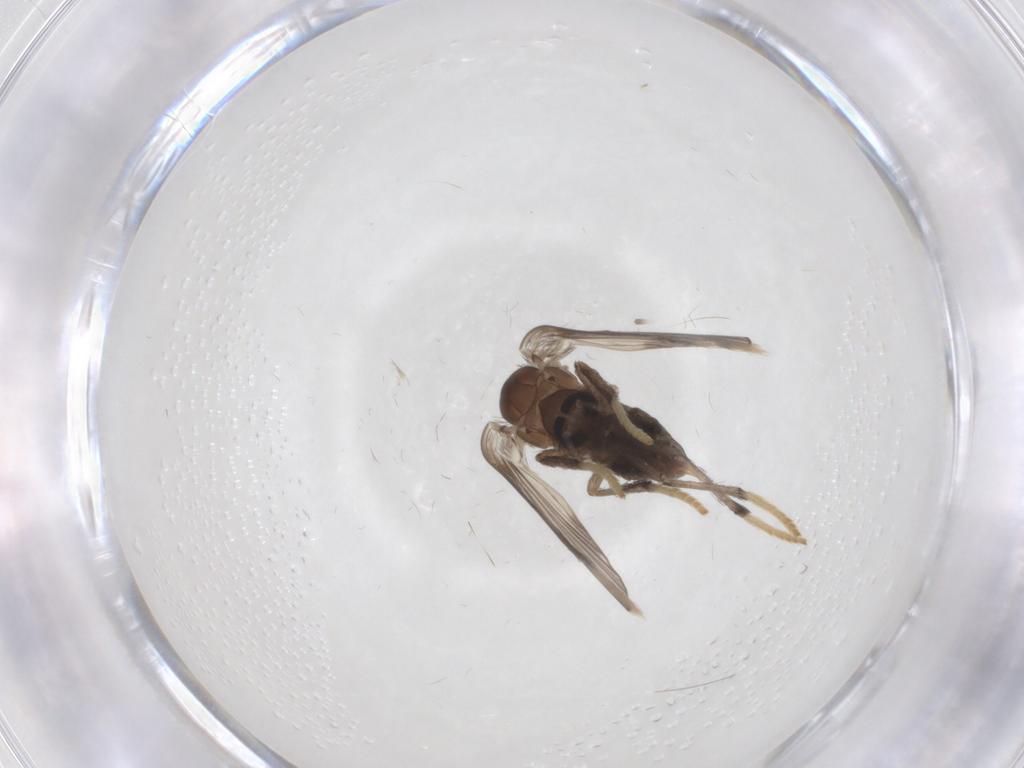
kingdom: Animalia
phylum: Arthropoda
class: Insecta
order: Diptera
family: Psychodidae
